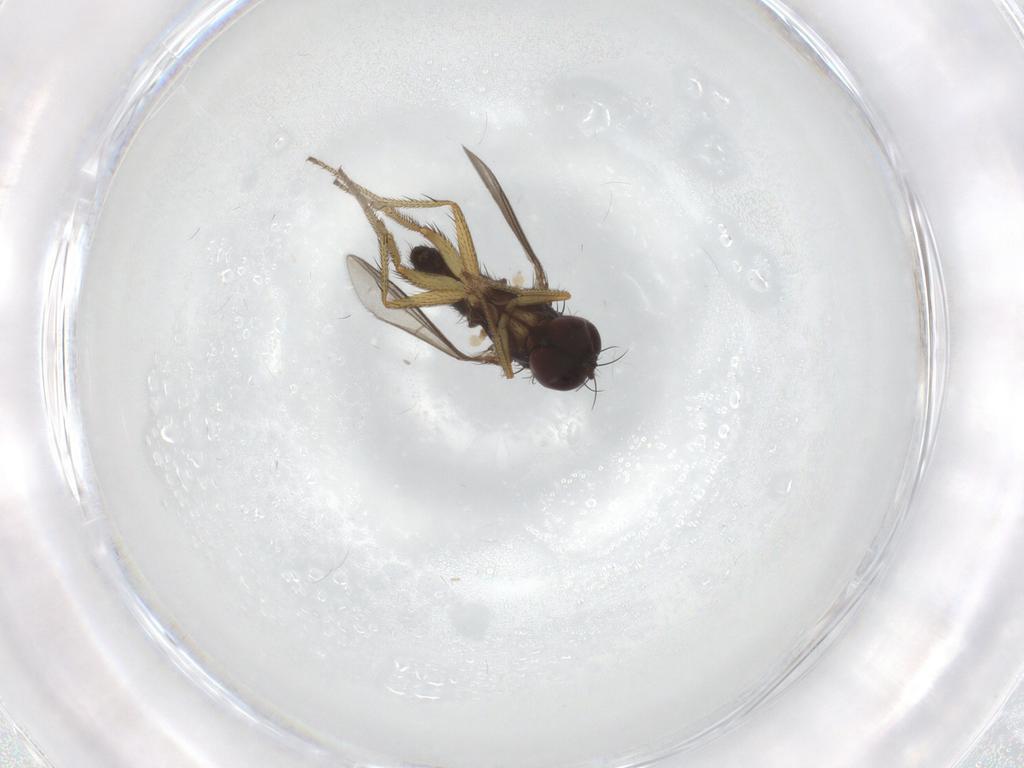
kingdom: Animalia
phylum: Arthropoda
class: Insecta
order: Diptera
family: Dolichopodidae
